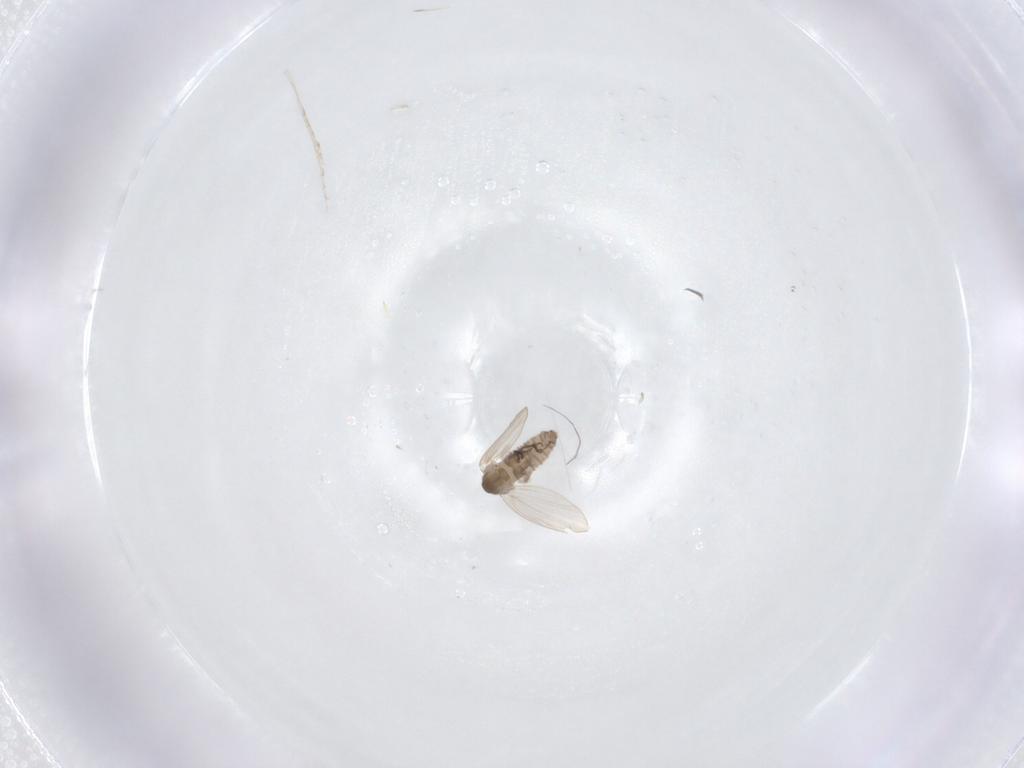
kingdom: Animalia
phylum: Arthropoda
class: Insecta
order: Diptera
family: Psychodidae
